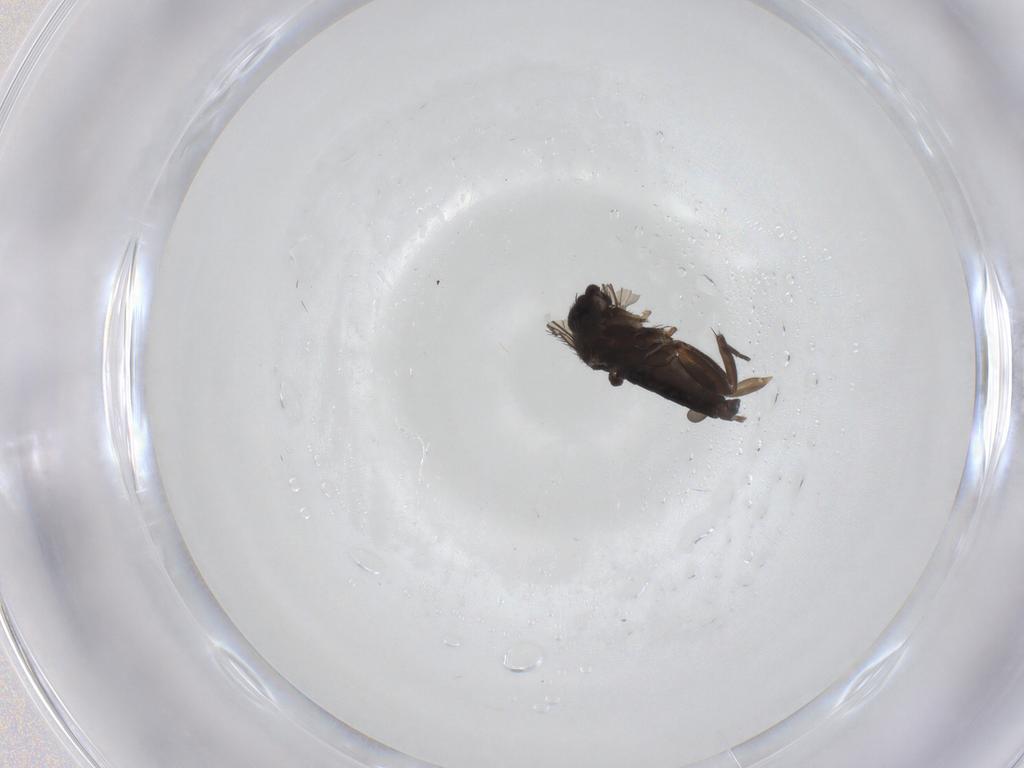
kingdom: Animalia
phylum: Arthropoda
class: Insecta
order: Diptera
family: Phoridae
